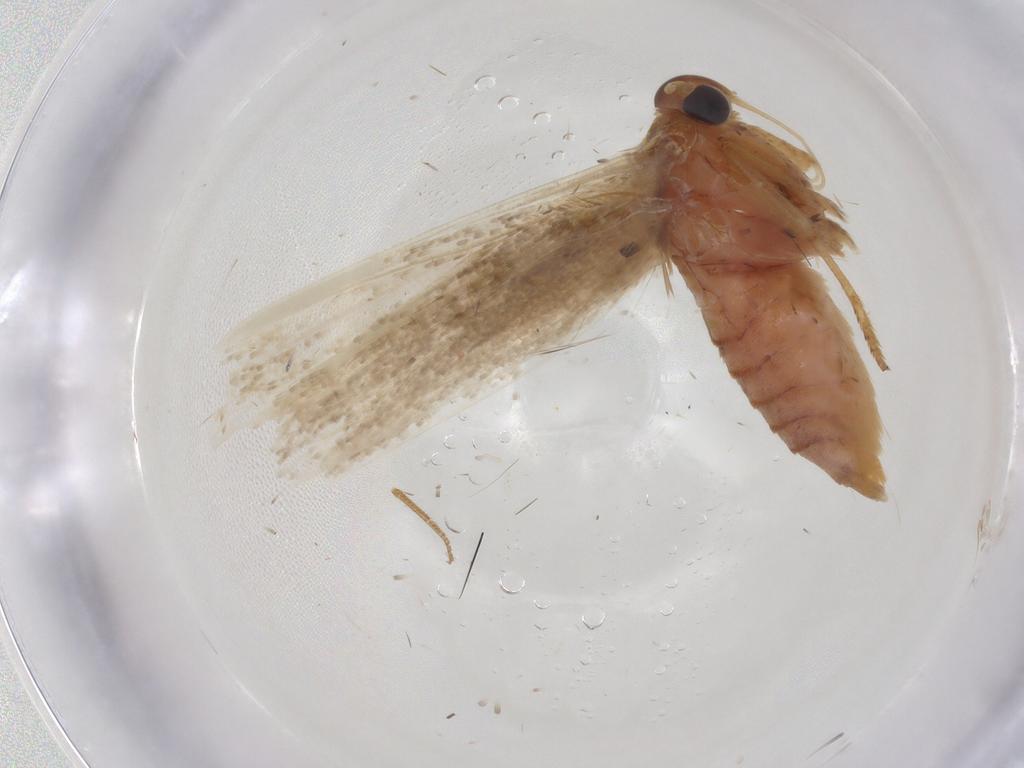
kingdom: Animalia
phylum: Arthropoda
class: Insecta
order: Lepidoptera
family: Blastobasidae
